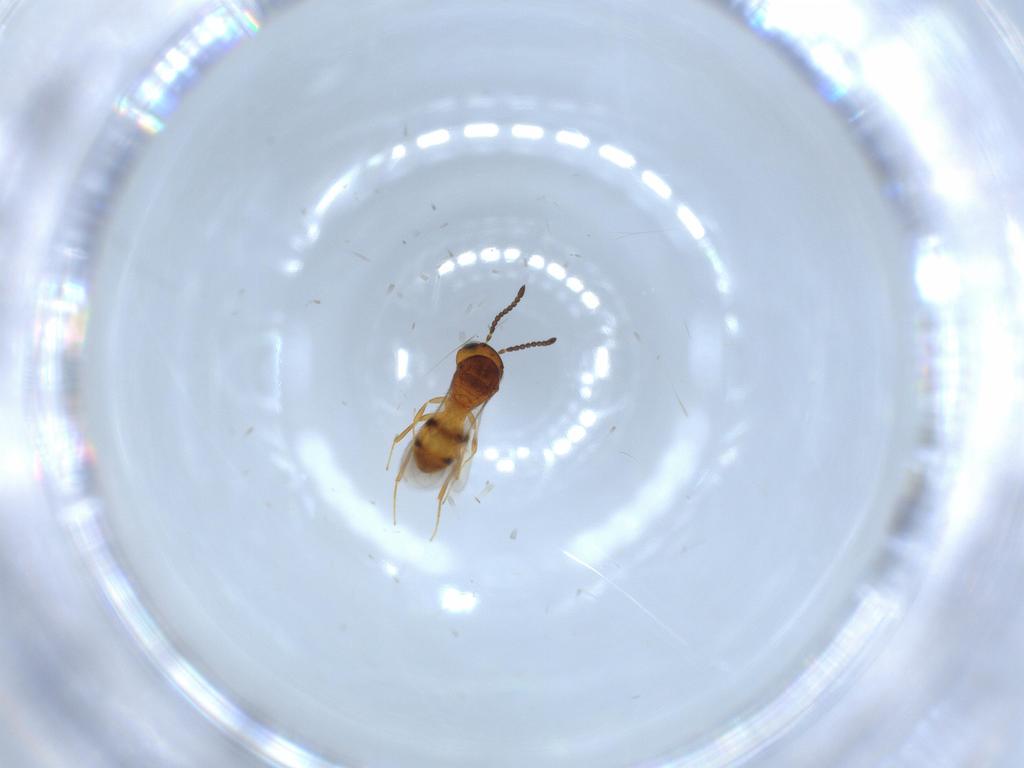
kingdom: Animalia
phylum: Arthropoda
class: Insecta
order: Hymenoptera
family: Scelionidae
